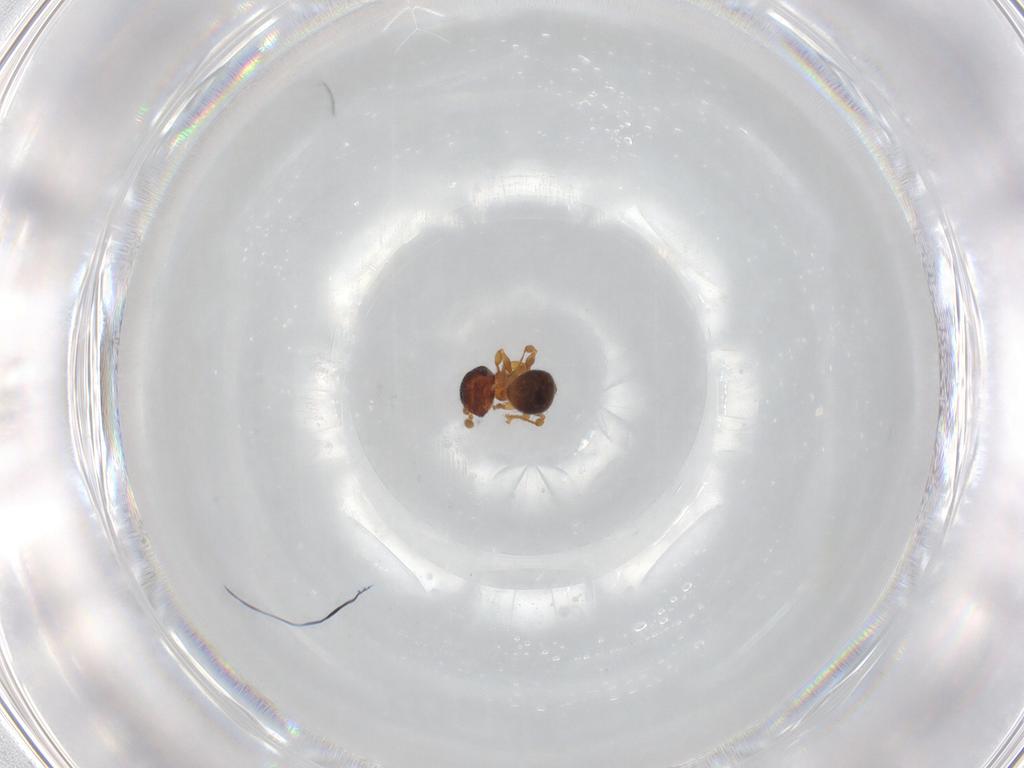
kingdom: Animalia
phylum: Arthropoda
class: Insecta
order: Hymenoptera
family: Formicidae
